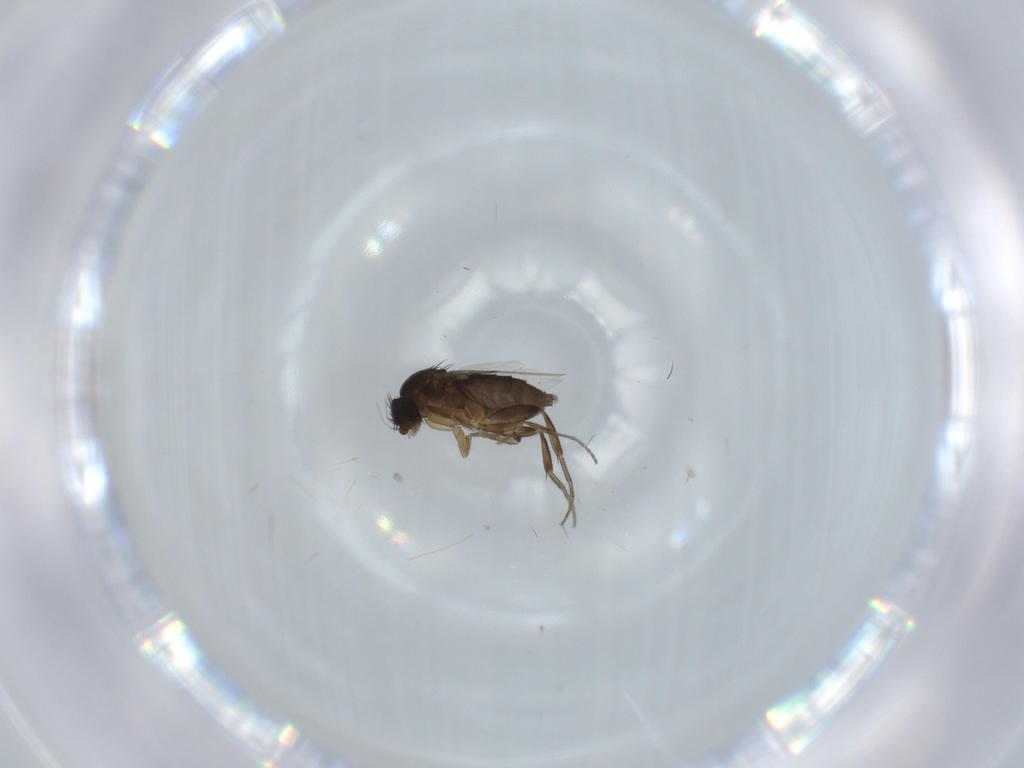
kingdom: Animalia
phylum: Arthropoda
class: Insecta
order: Diptera
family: Phoridae
